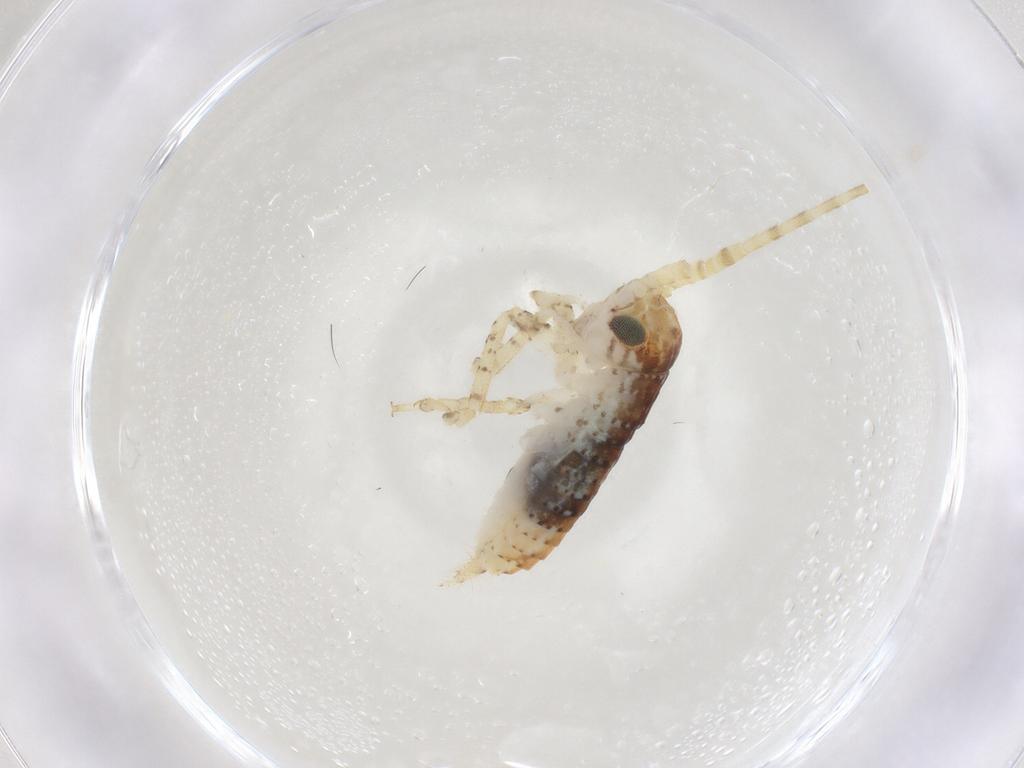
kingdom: Animalia
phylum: Arthropoda
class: Insecta
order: Orthoptera
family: Gryllidae
